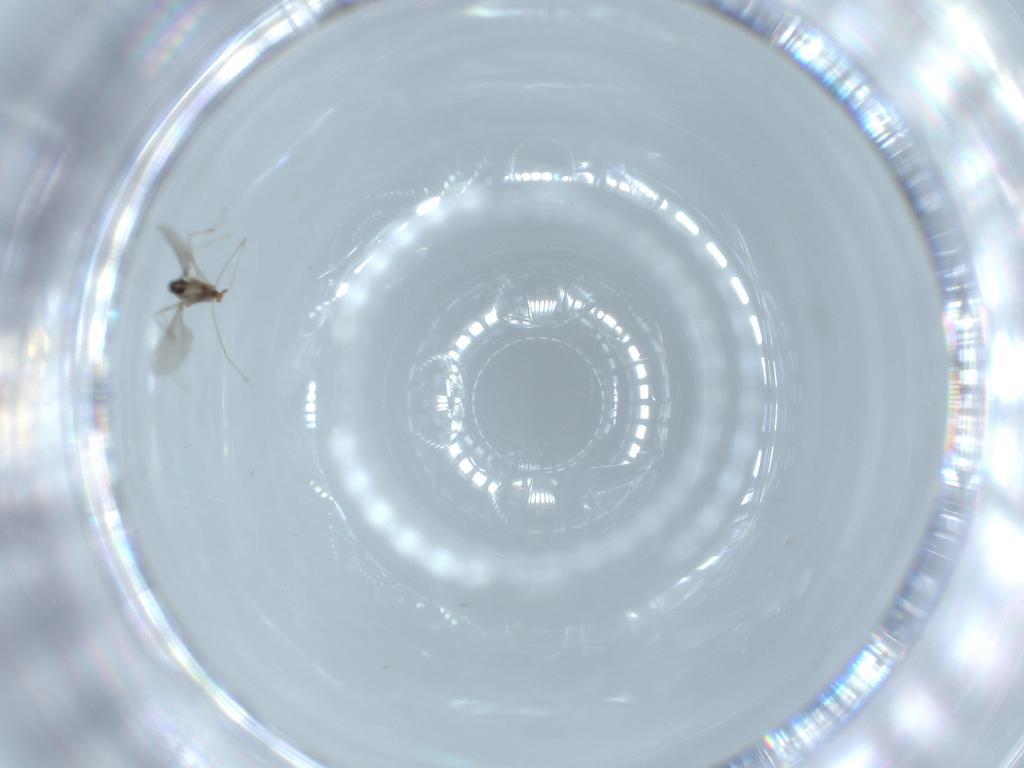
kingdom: Animalia
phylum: Arthropoda
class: Insecta
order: Diptera
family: Cecidomyiidae
